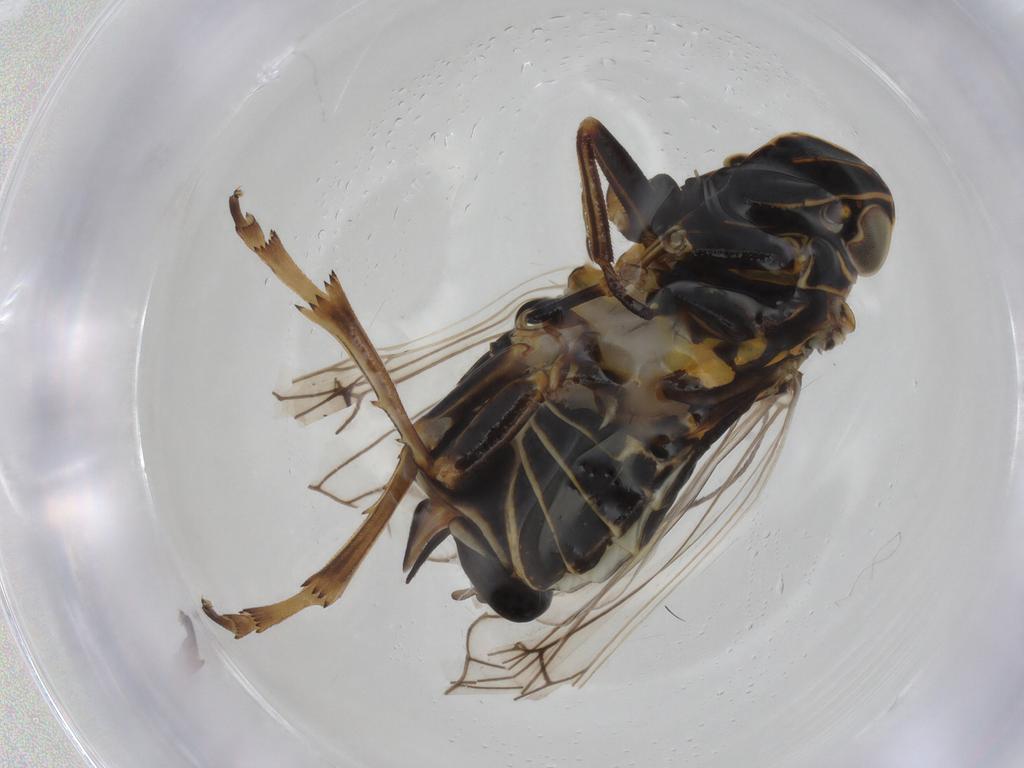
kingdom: Animalia
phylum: Arthropoda
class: Insecta
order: Hemiptera
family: Cixiidae
